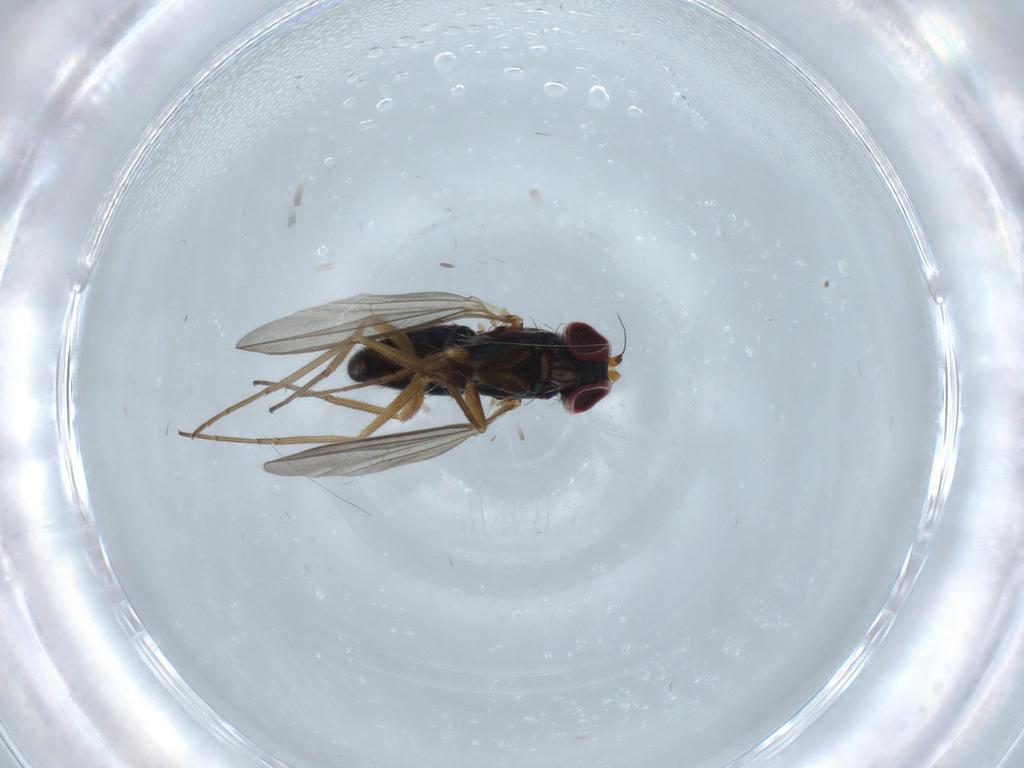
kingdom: Animalia
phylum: Arthropoda
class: Insecta
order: Diptera
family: Dolichopodidae
